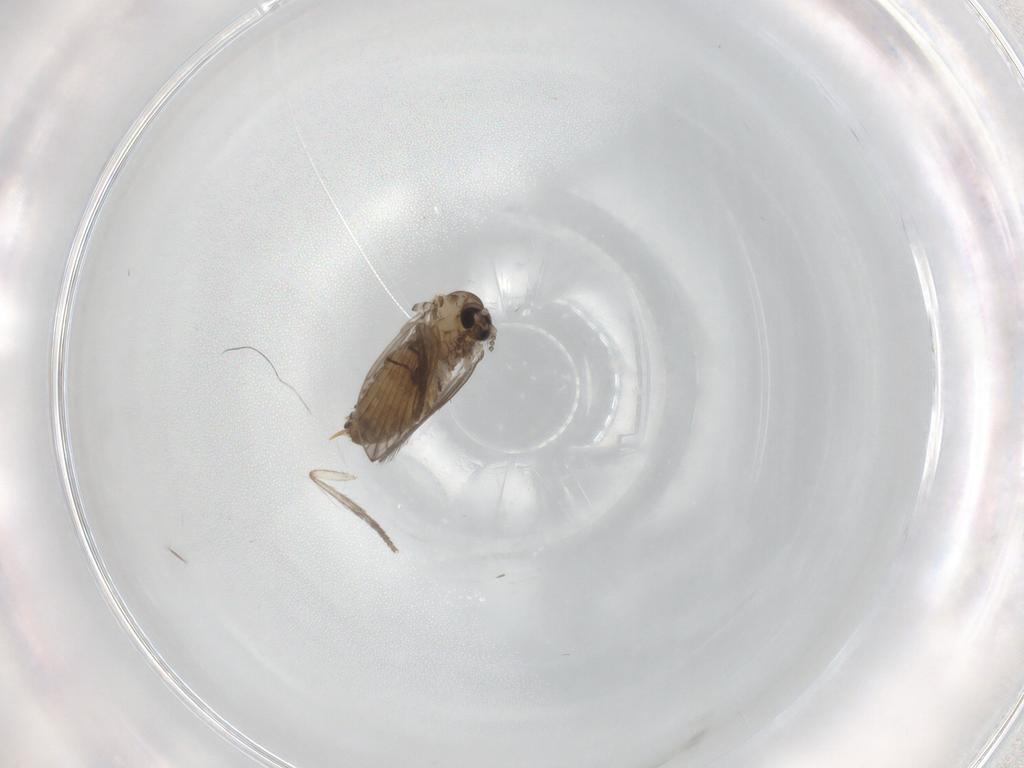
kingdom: Animalia
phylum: Arthropoda
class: Insecta
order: Diptera
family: Psychodidae
